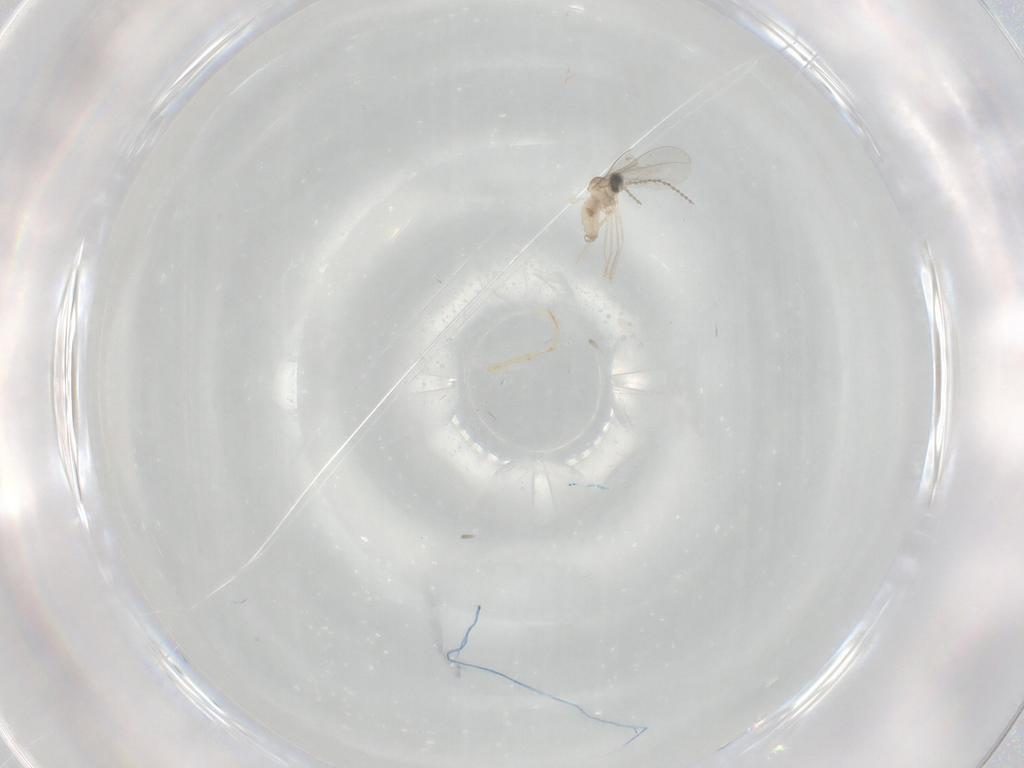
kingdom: Animalia
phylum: Arthropoda
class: Insecta
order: Diptera
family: Cecidomyiidae
